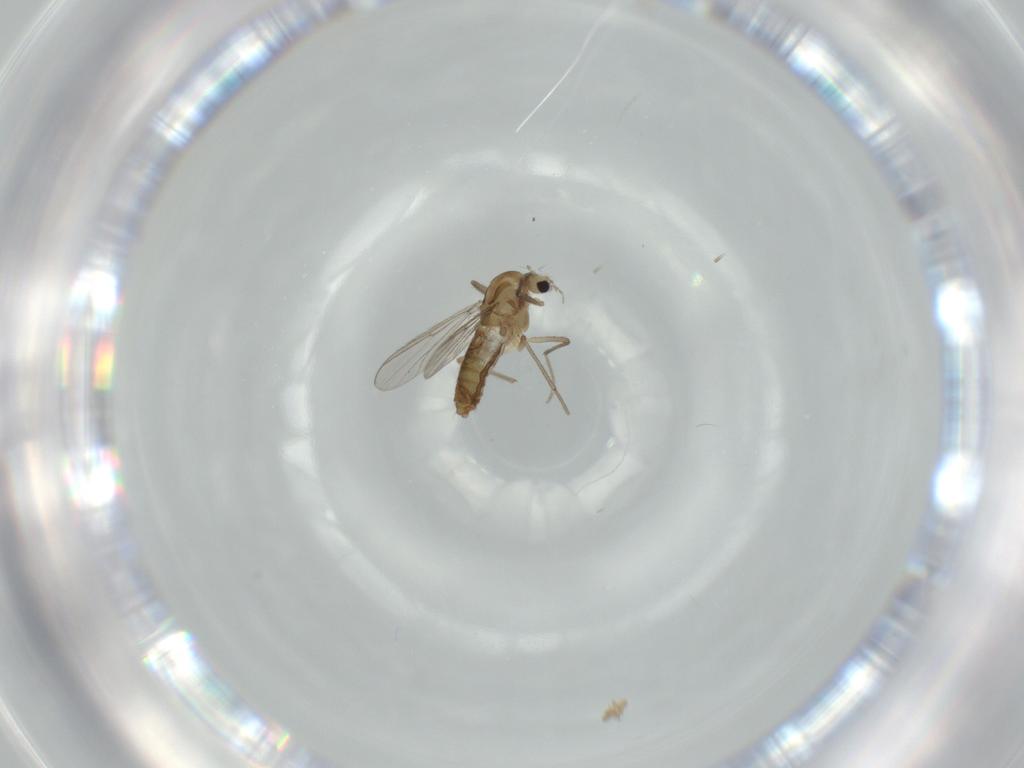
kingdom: Animalia
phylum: Arthropoda
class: Insecta
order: Diptera
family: Chironomidae
